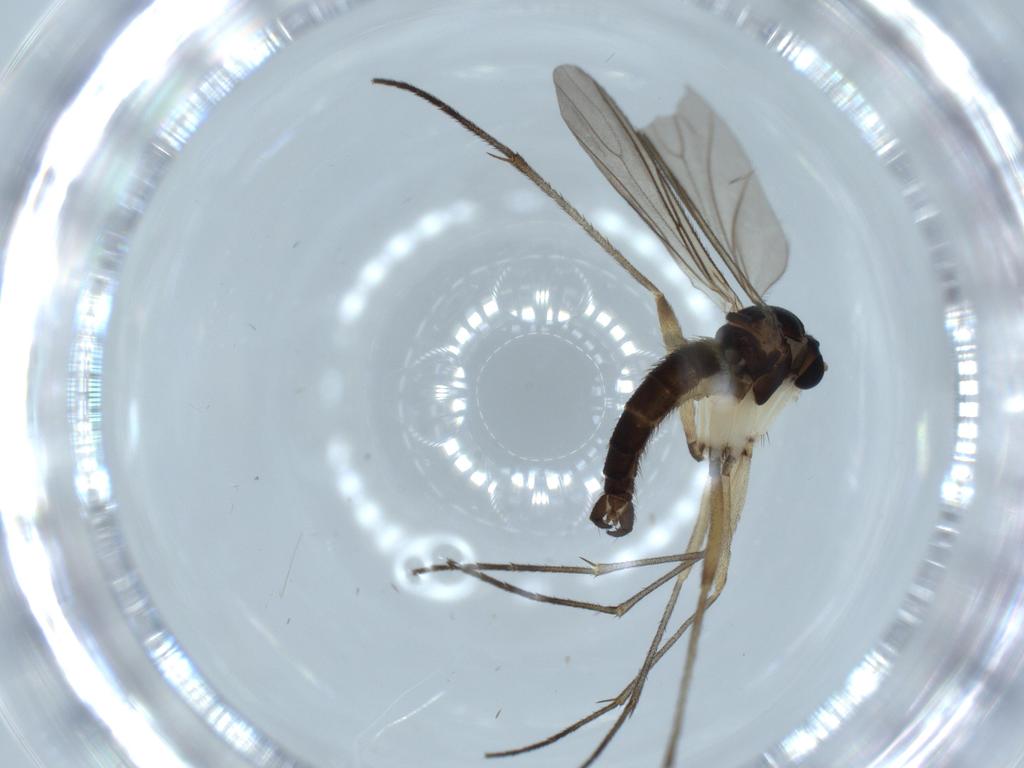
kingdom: Animalia
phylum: Arthropoda
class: Insecta
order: Diptera
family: Sciaridae
